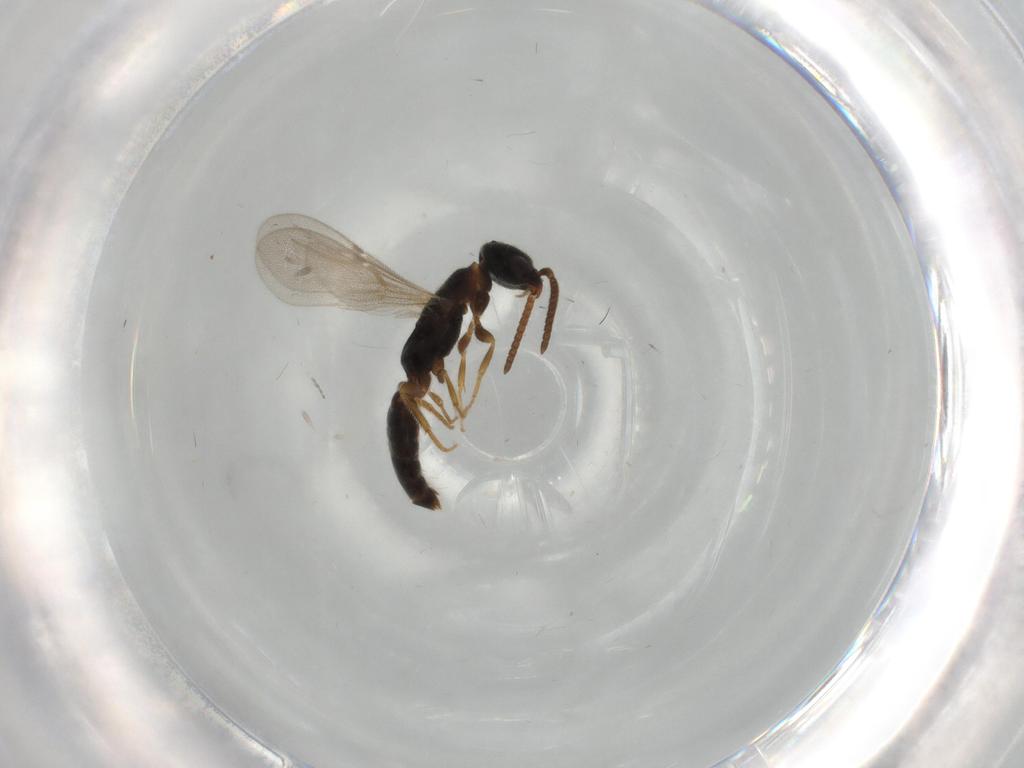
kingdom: Animalia
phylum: Arthropoda
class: Insecta
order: Hymenoptera
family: Bethylidae
